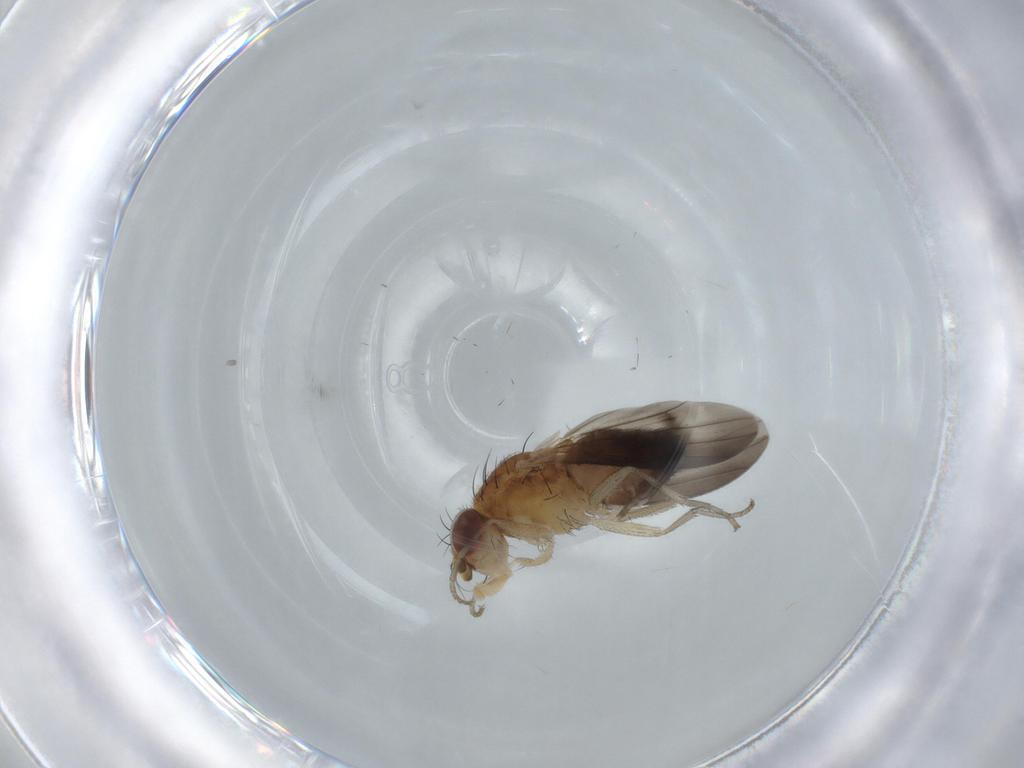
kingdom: Animalia
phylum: Arthropoda
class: Insecta
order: Diptera
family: Heleomyzidae
